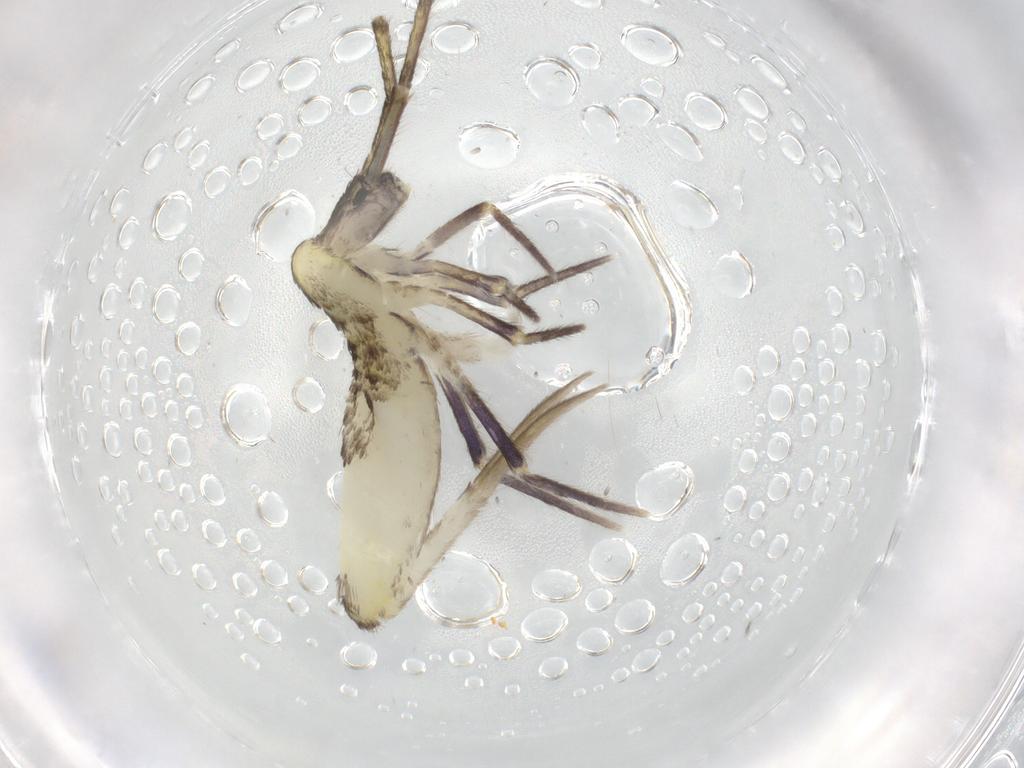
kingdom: Animalia
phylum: Arthropoda
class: Collembola
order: Entomobryomorpha
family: Entomobryidae
